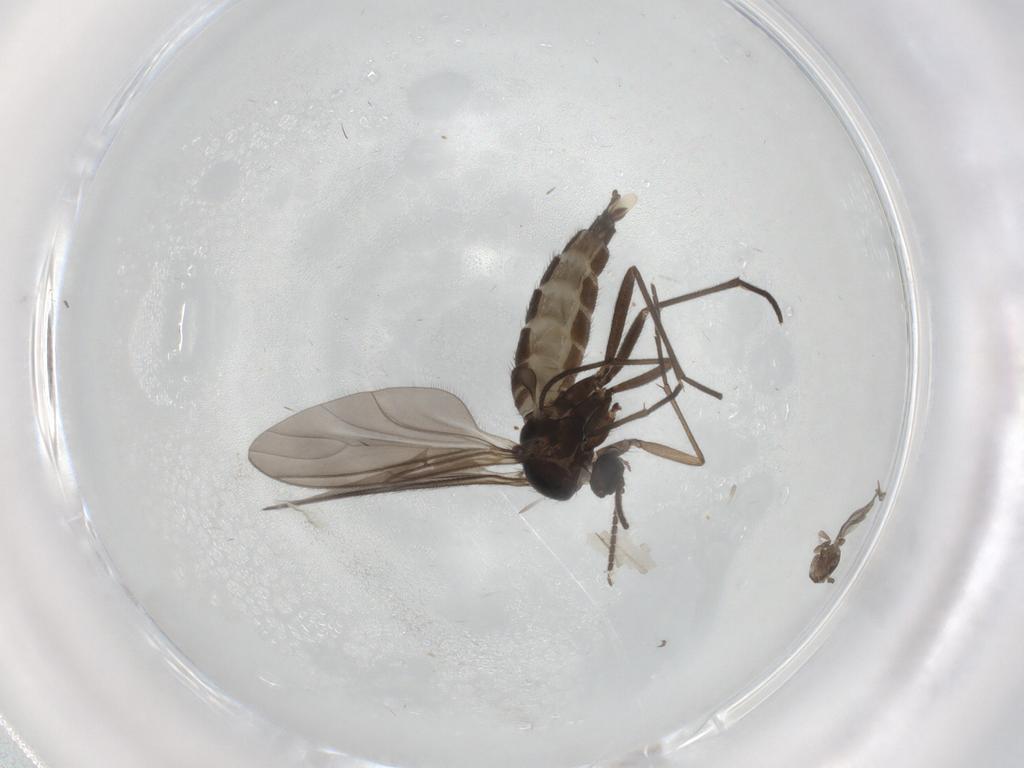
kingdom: Animalia
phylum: Arthropoda
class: Insecta
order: Diptera
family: Sciaridae
